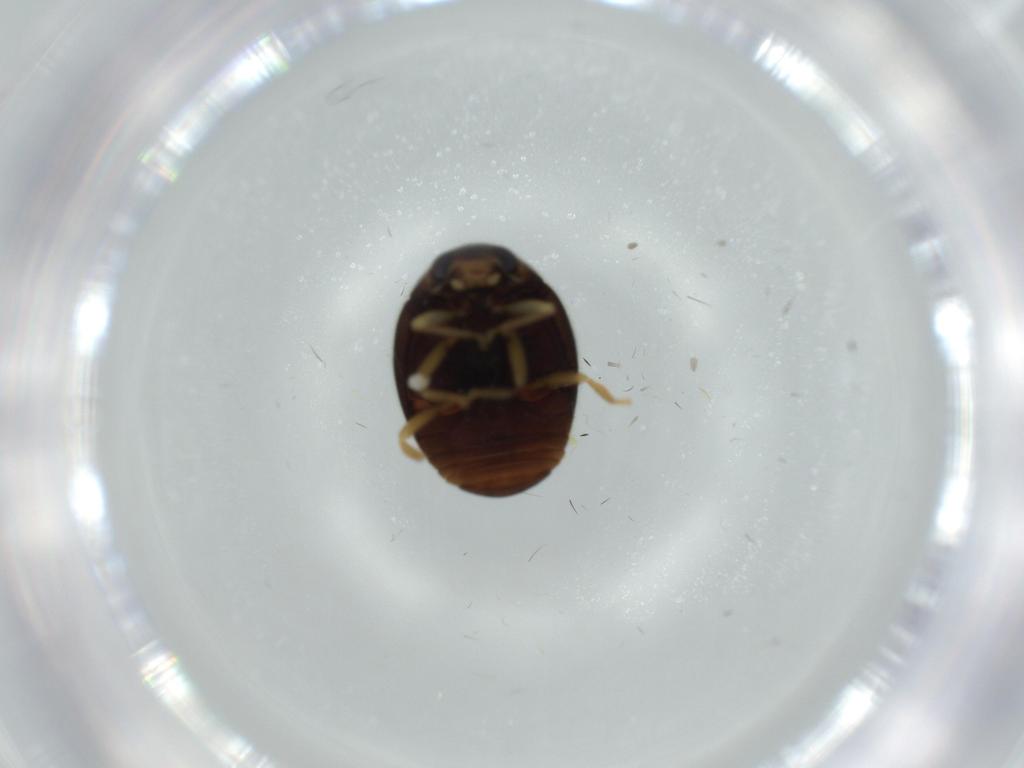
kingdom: Animalia
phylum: Arthropoda
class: Insecta
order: Coleoptera
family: Coccinellidae
